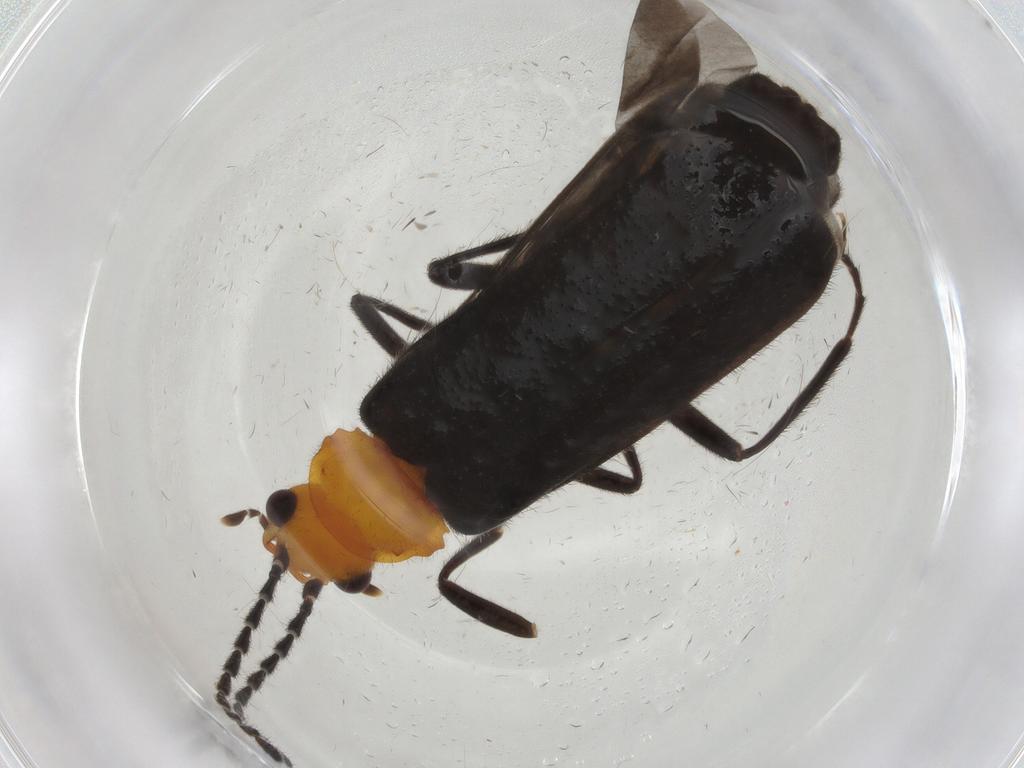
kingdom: Animalia
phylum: Arthropoda
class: Insecta
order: Coleoptera
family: Cantharidae
